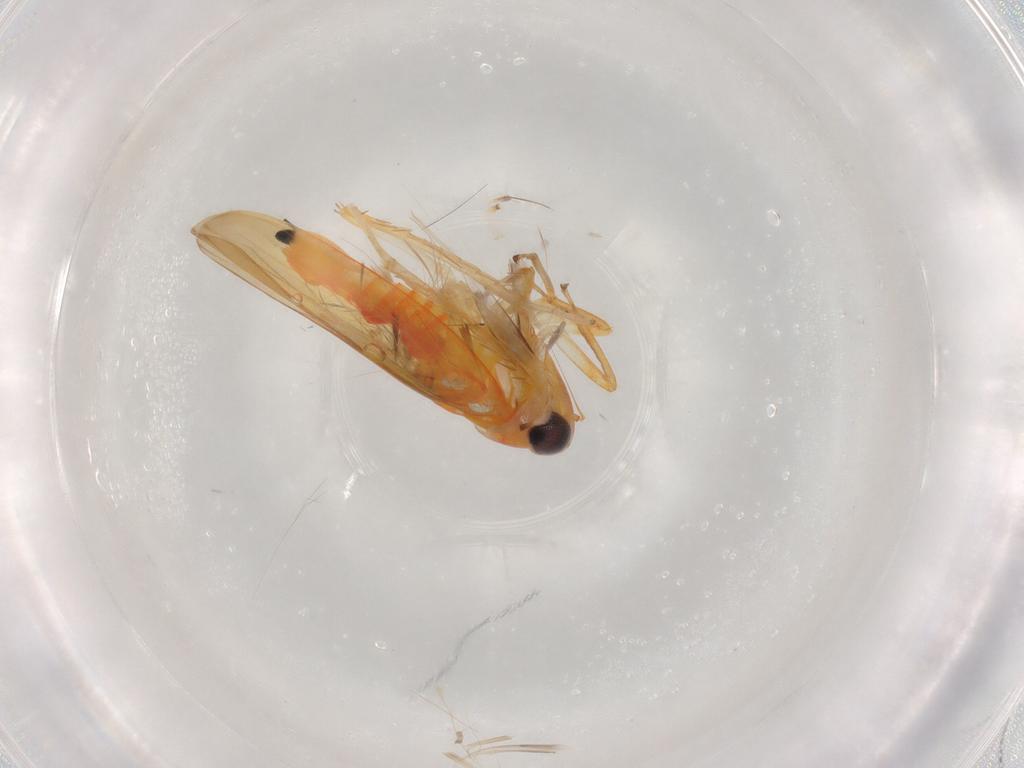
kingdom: Animalia
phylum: Arthropoda
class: Insecta
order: Hemiptera
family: Cicadellidae
